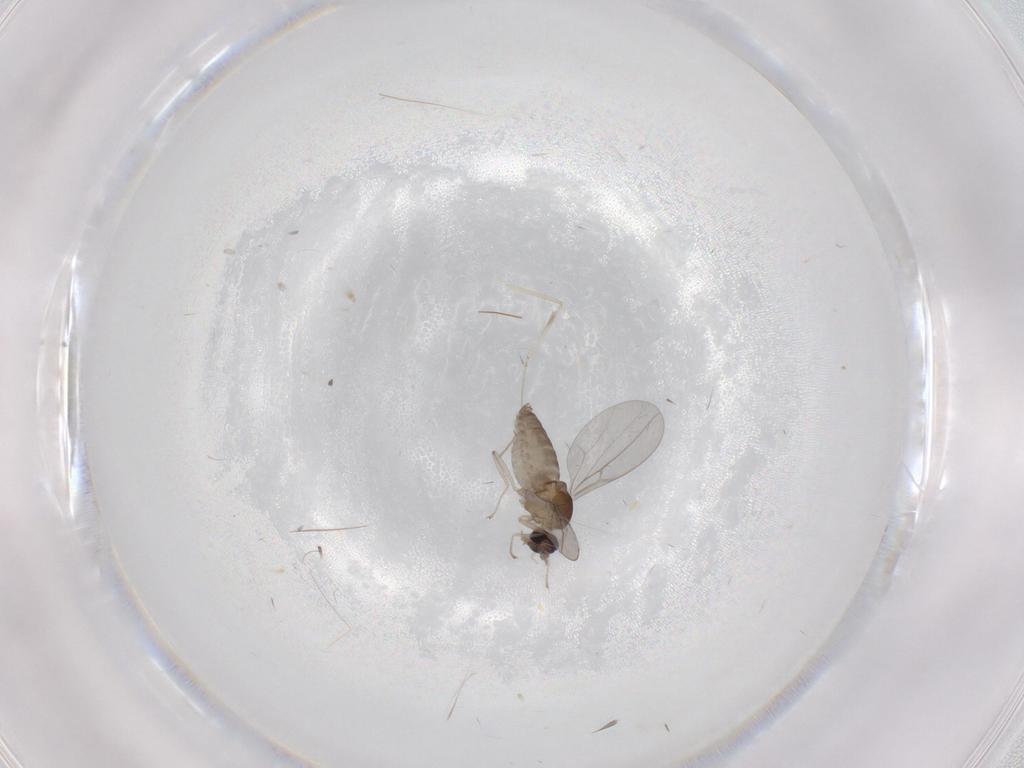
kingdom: Animalia
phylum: Arthropoda
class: Insecta
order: Diptera
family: Cecidomyiidae
